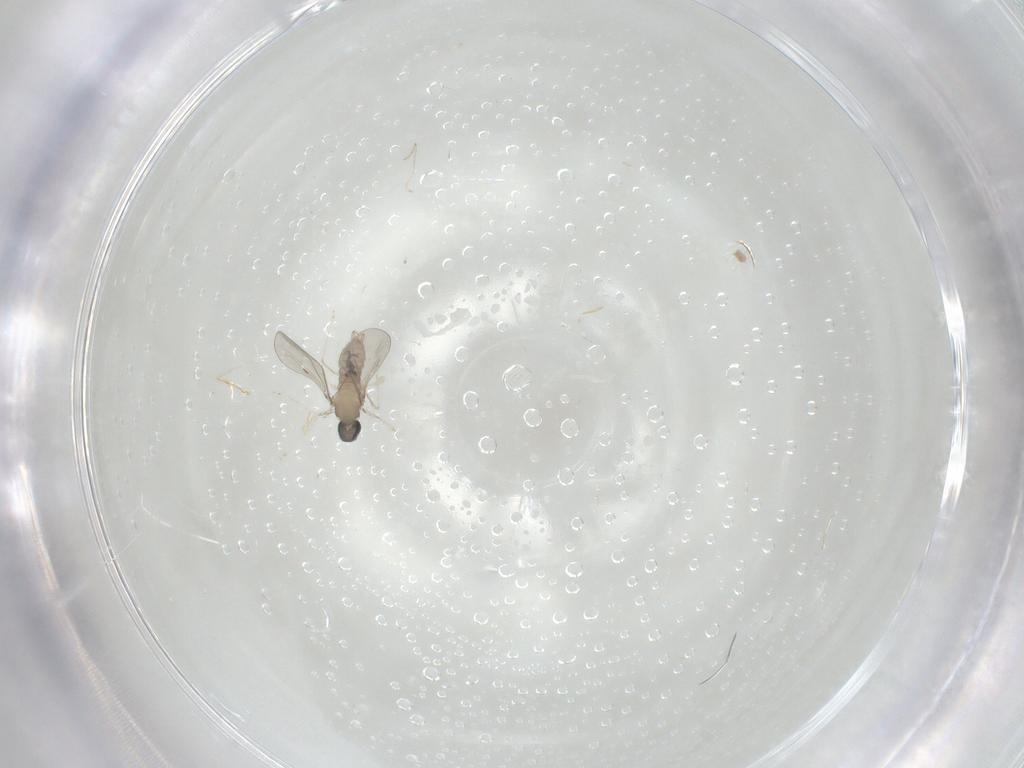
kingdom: Animalia
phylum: Arthropoda
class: Insecta
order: Diptera
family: Cecidomyiidae
